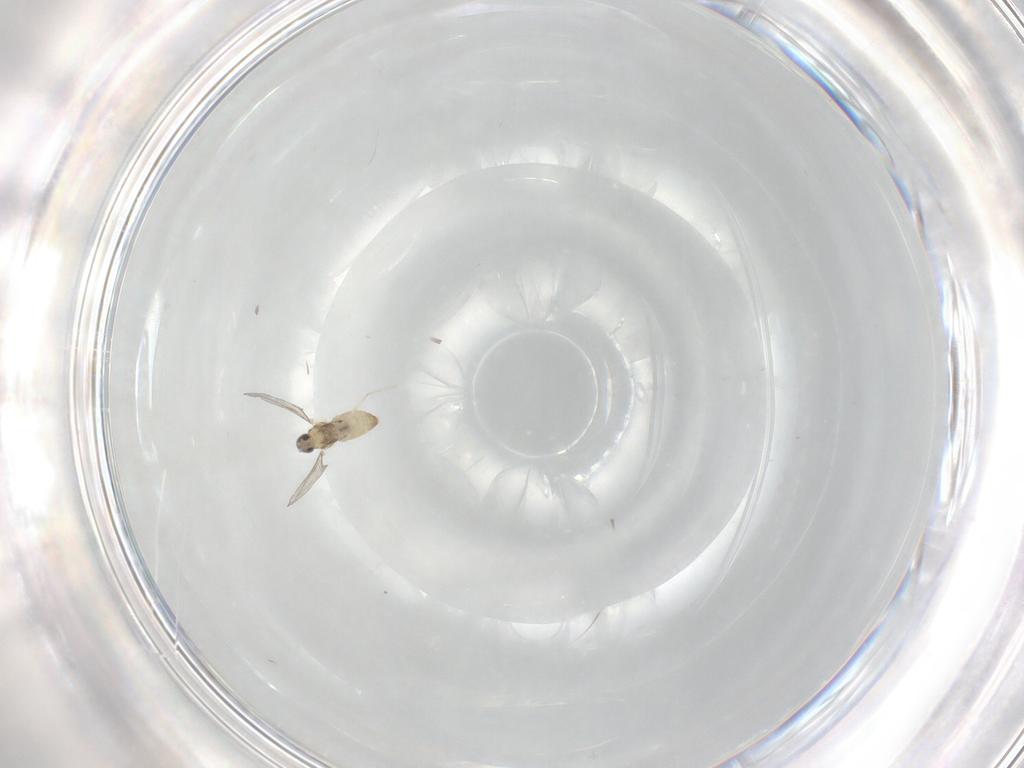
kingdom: Animalia
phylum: Arthropoda
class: Insecta
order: Diptera
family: Cecidomyiidae
